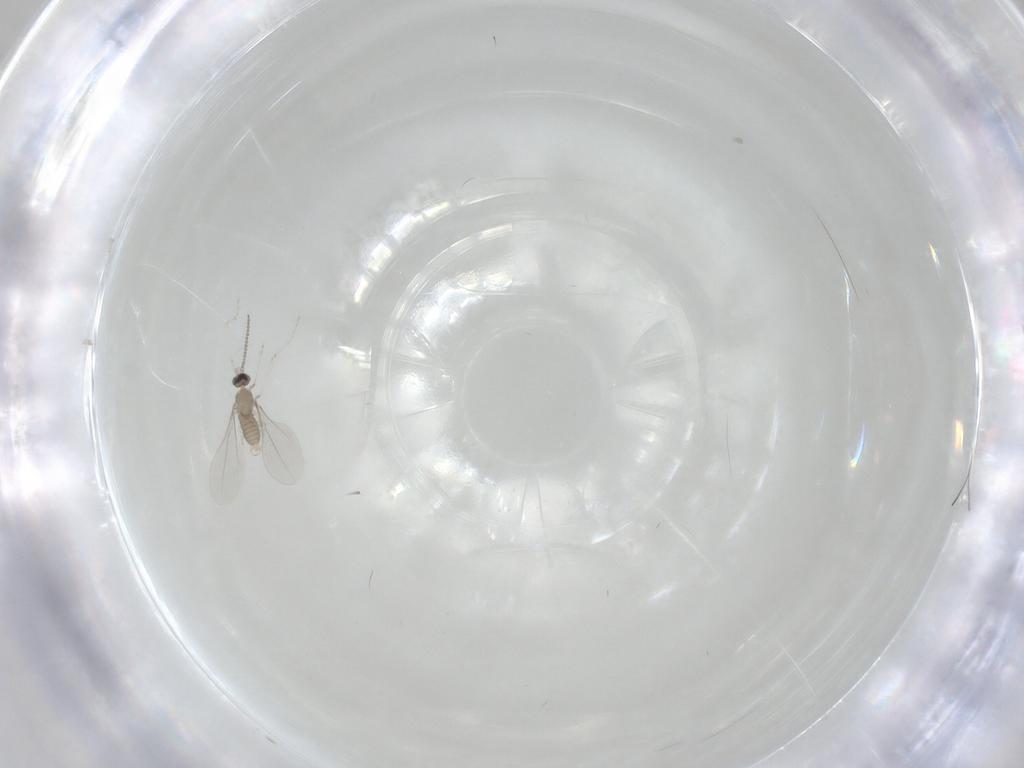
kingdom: Animalia
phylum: Arthropoda
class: Insecta
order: Diptera
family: Cecidomyiidae
